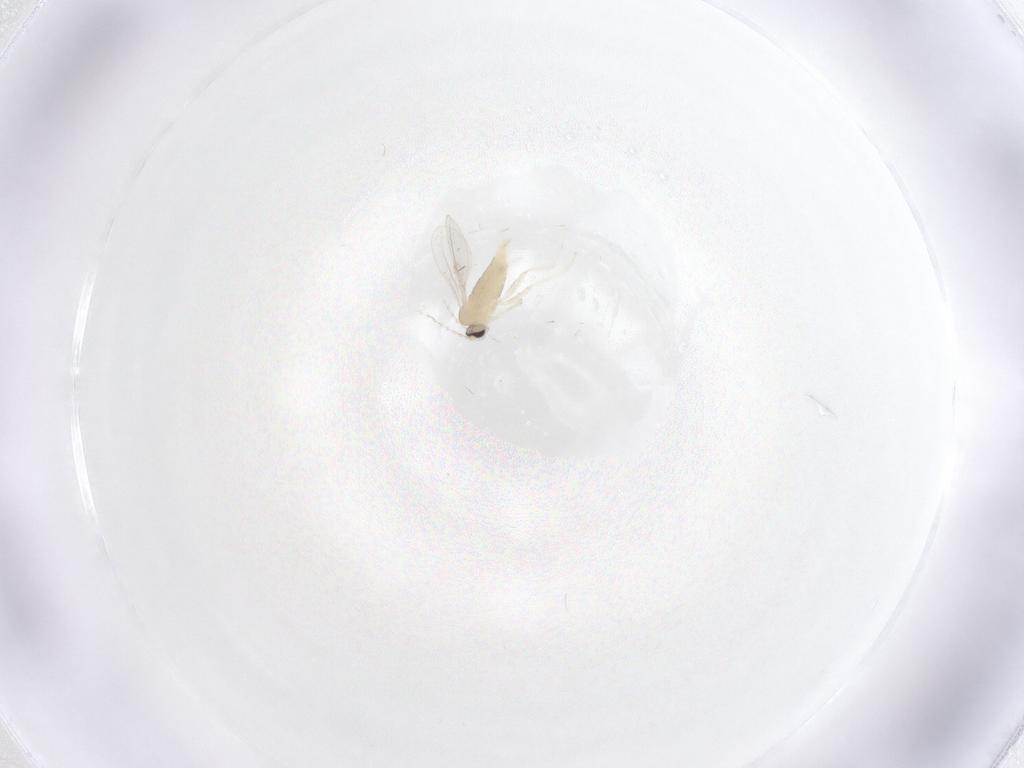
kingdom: Animalia
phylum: Arthropoda
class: Insecta
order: Diptera
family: Cecidomyiidae
